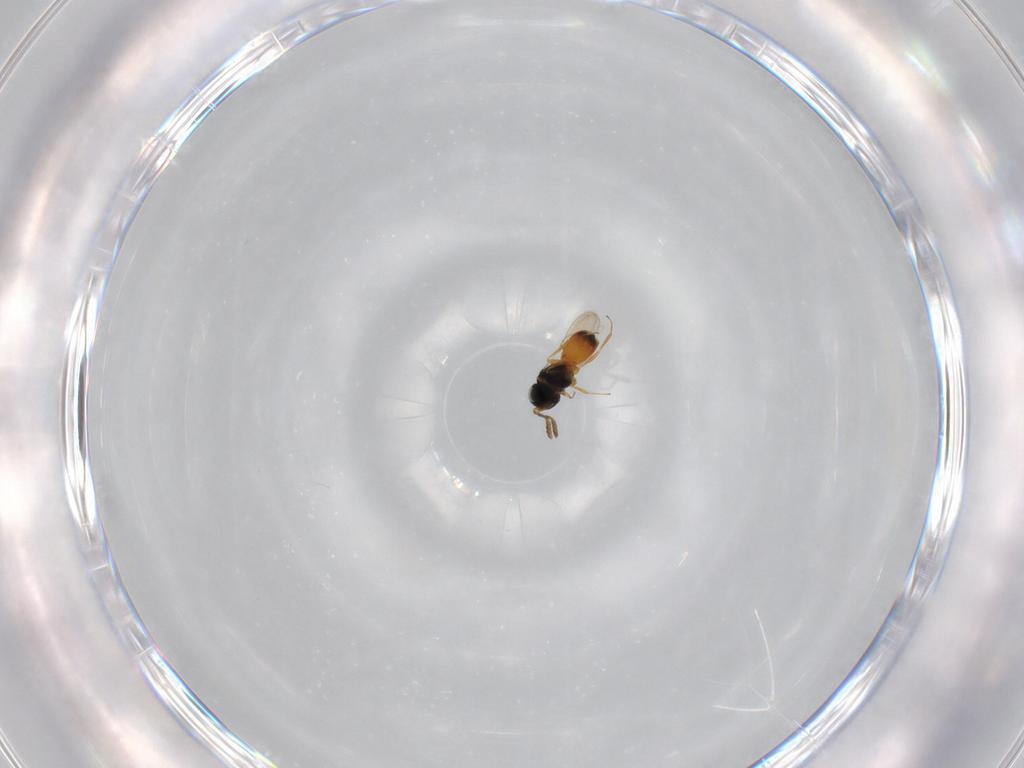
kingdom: Animalia
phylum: Arthropoda
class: Insecta
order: Hymenoptera
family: Scelionidae
